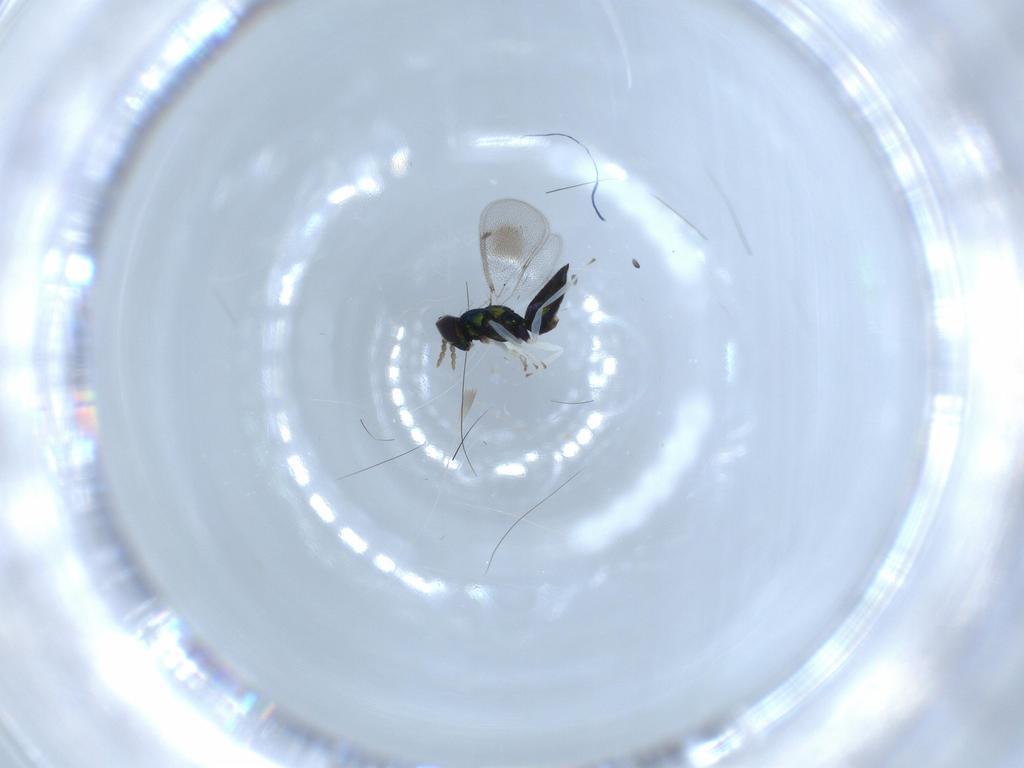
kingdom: Animalia
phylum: Arthropoda
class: Insecta
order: Hymenoptera
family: Eulophidae
